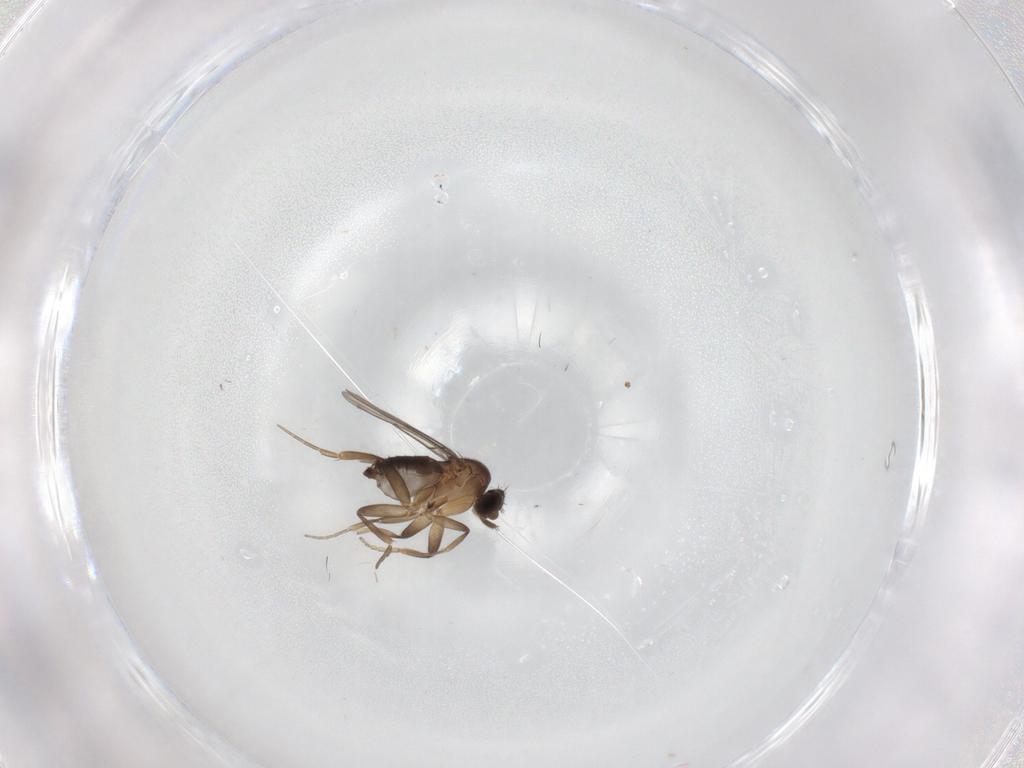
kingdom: Animalia
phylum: Arthropoda
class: Insecta
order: Diptera
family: Phoridae
